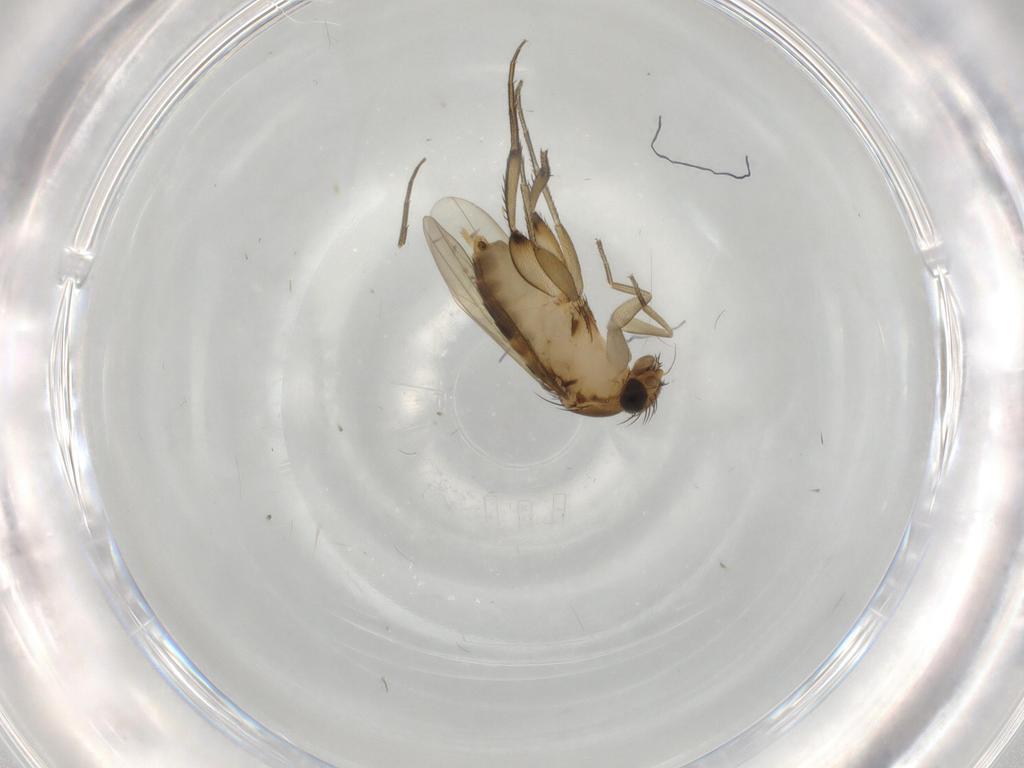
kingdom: Animalia
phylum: Arthropoda
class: Insecta
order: Diptera
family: Phoridae
